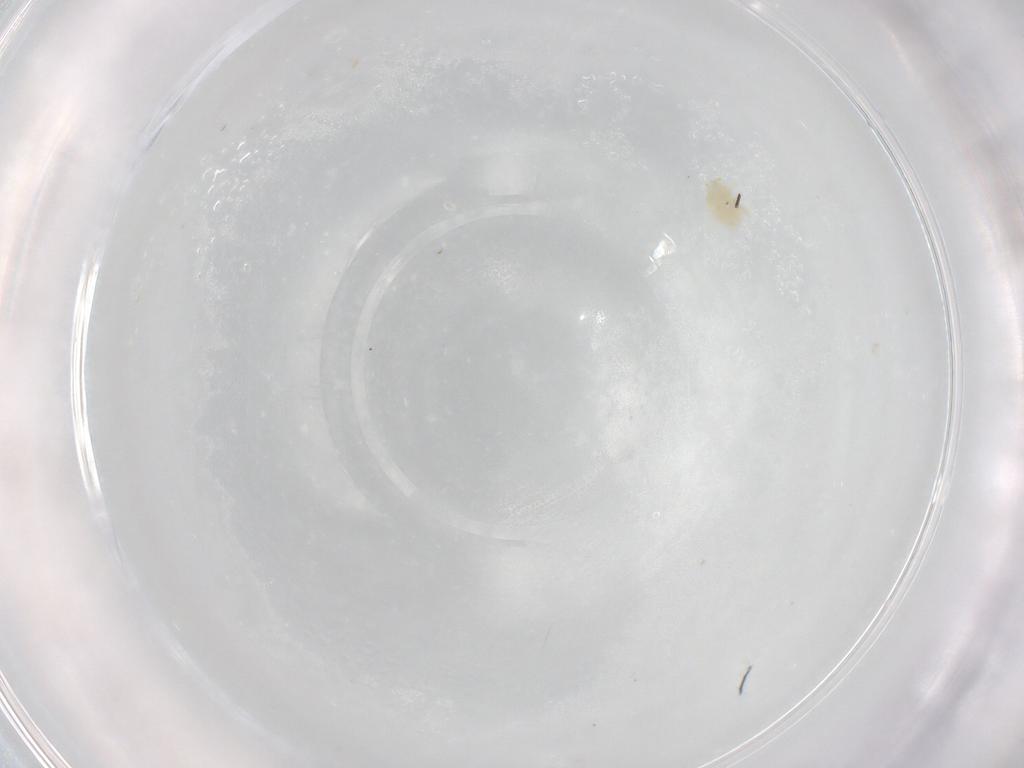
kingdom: Animalia
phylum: Arthropoda
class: Arachnida
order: Trombidiformes
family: Eupodidae
